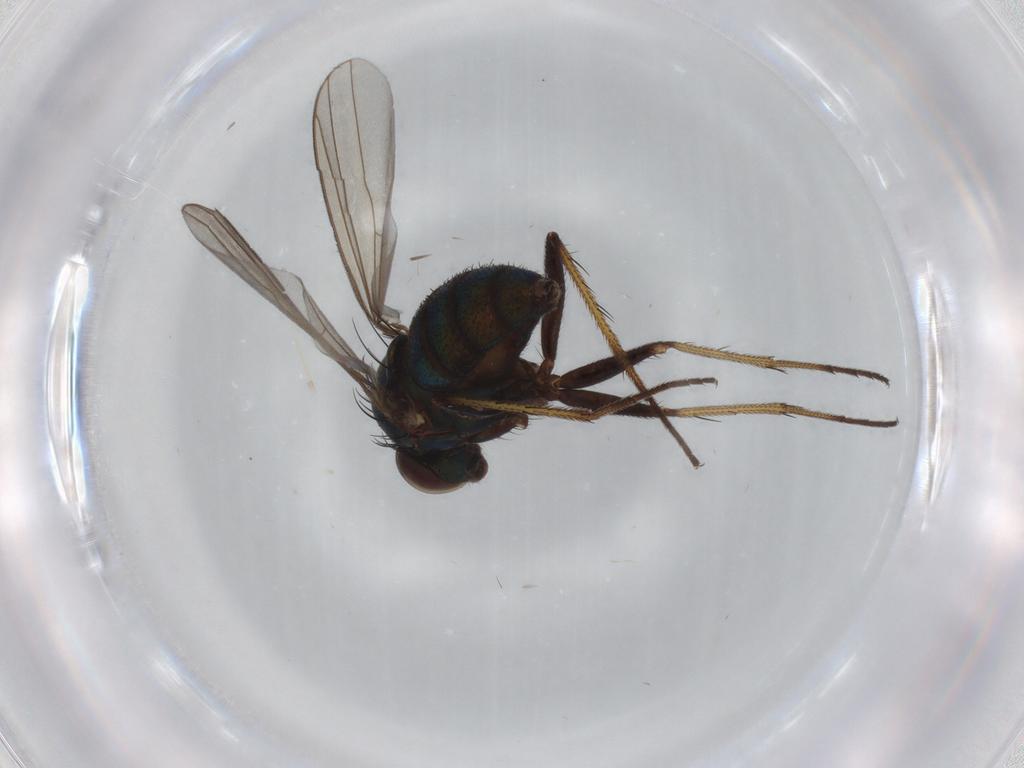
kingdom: Animalia
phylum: Arthropoda
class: Insecta
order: Diptera
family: Dolichopodidae
